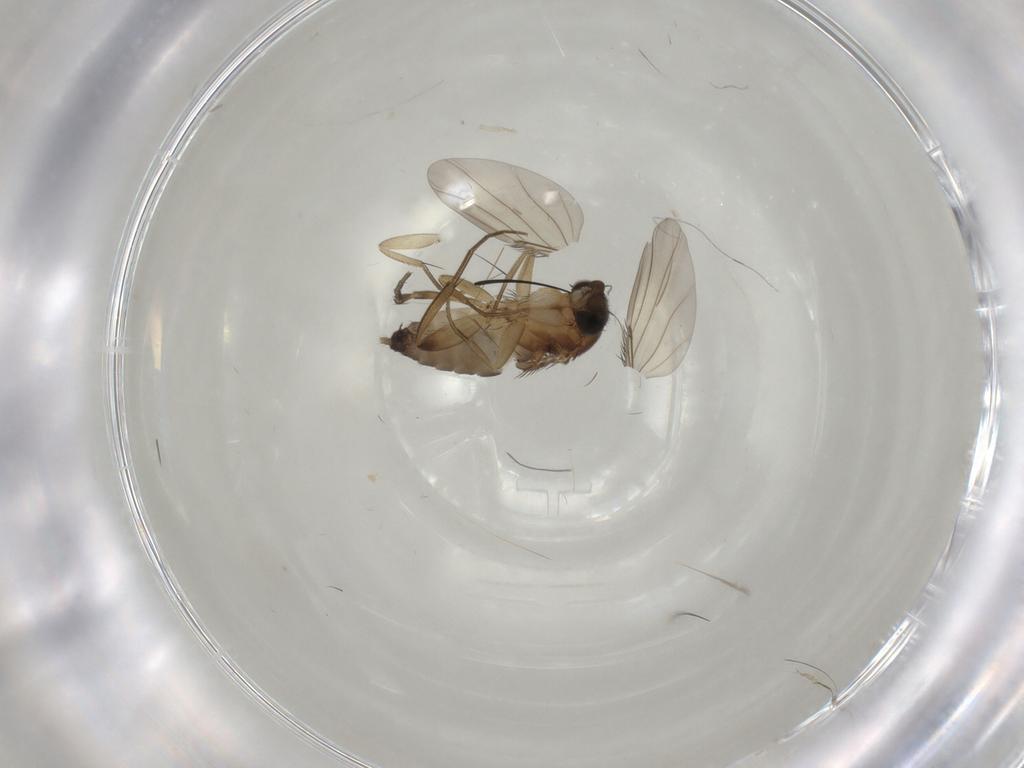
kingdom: Animalia
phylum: Arthropoda
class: Insecta
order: Diptera
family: Phoridae
